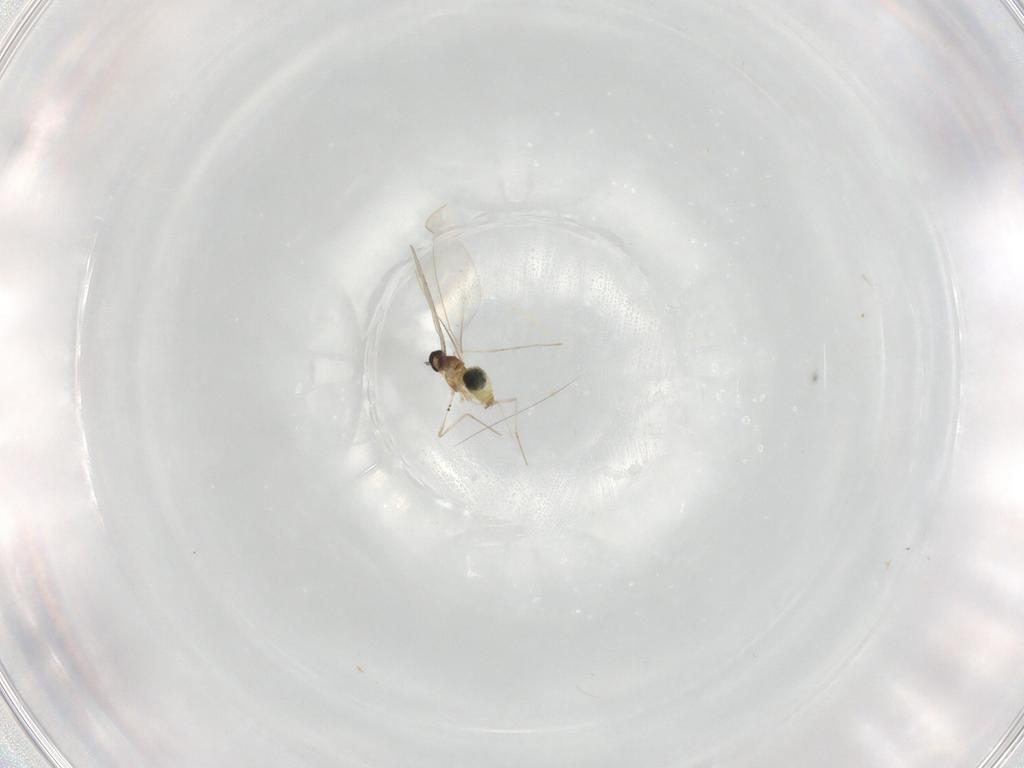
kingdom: Animalia
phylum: Arthropoda
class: Insecta
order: Diptera
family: Cecidomyiidae
